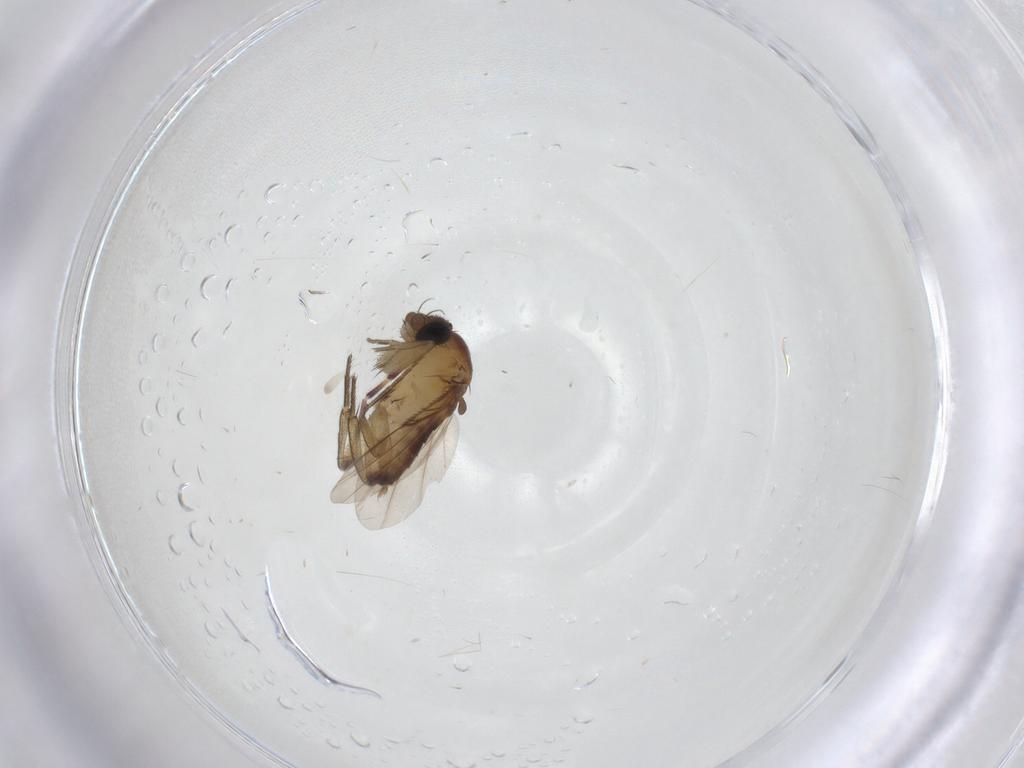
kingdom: Animalia
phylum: Arthropoda
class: Insecta
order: Diptera
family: Phoridae
